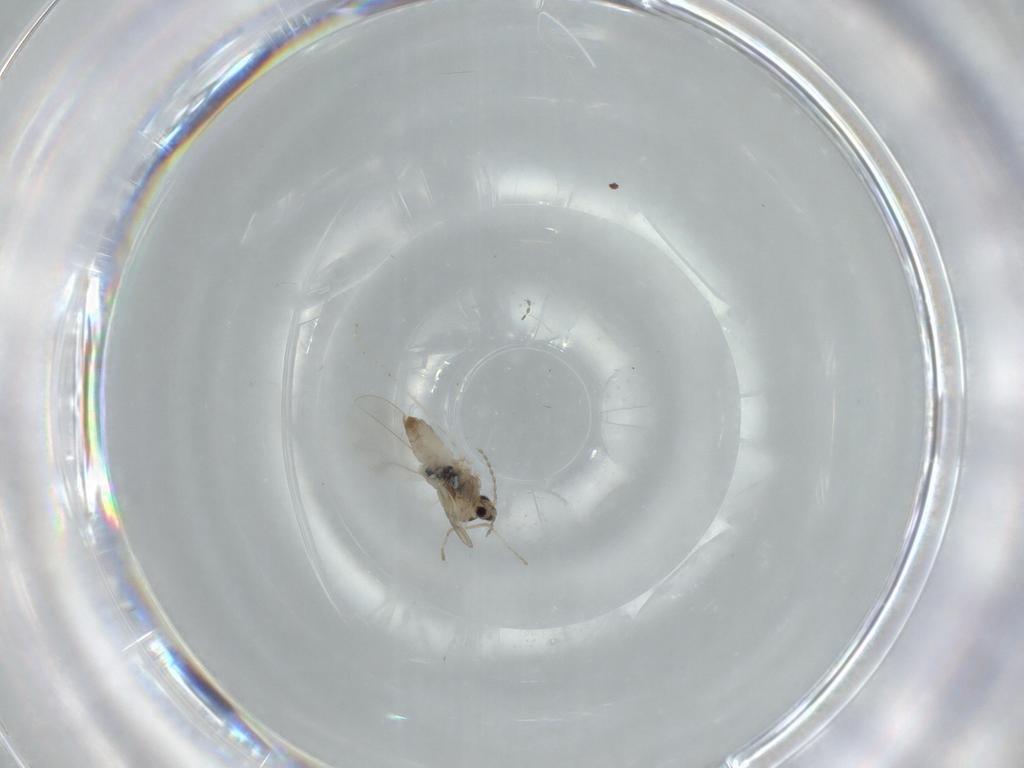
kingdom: Animalia
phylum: Arthropoda
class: Insecta
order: Diptera
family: Cecidomyiidae
